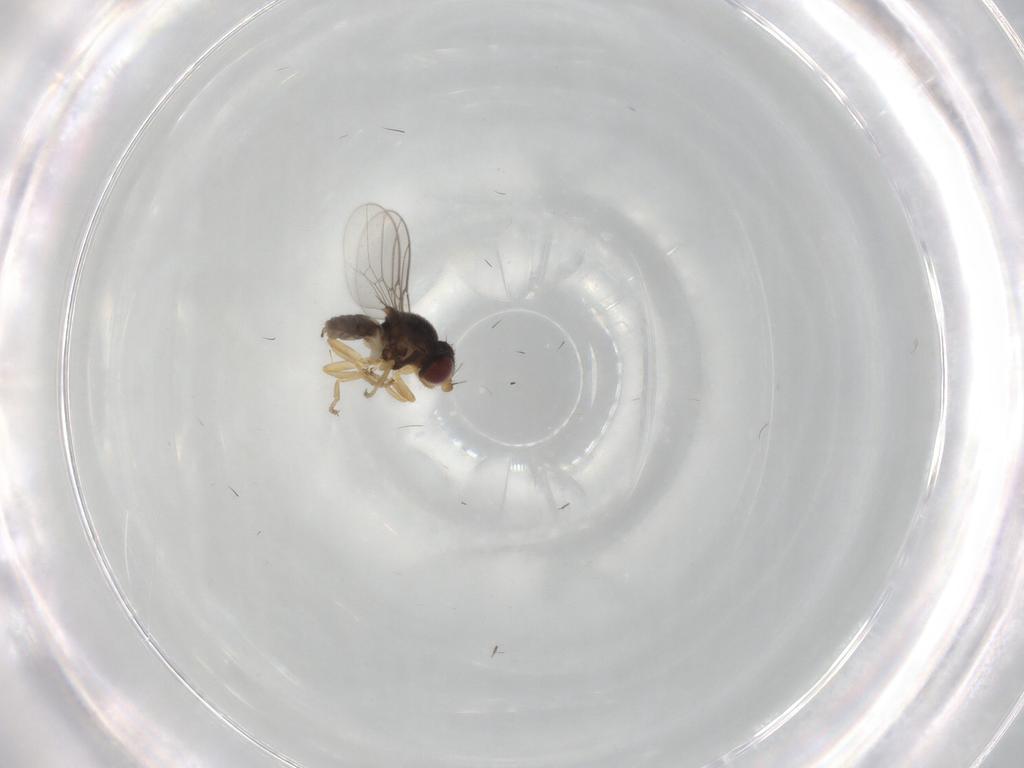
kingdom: Animalia
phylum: Arthropoda
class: Insecta
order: Diptera
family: Chloropidae
